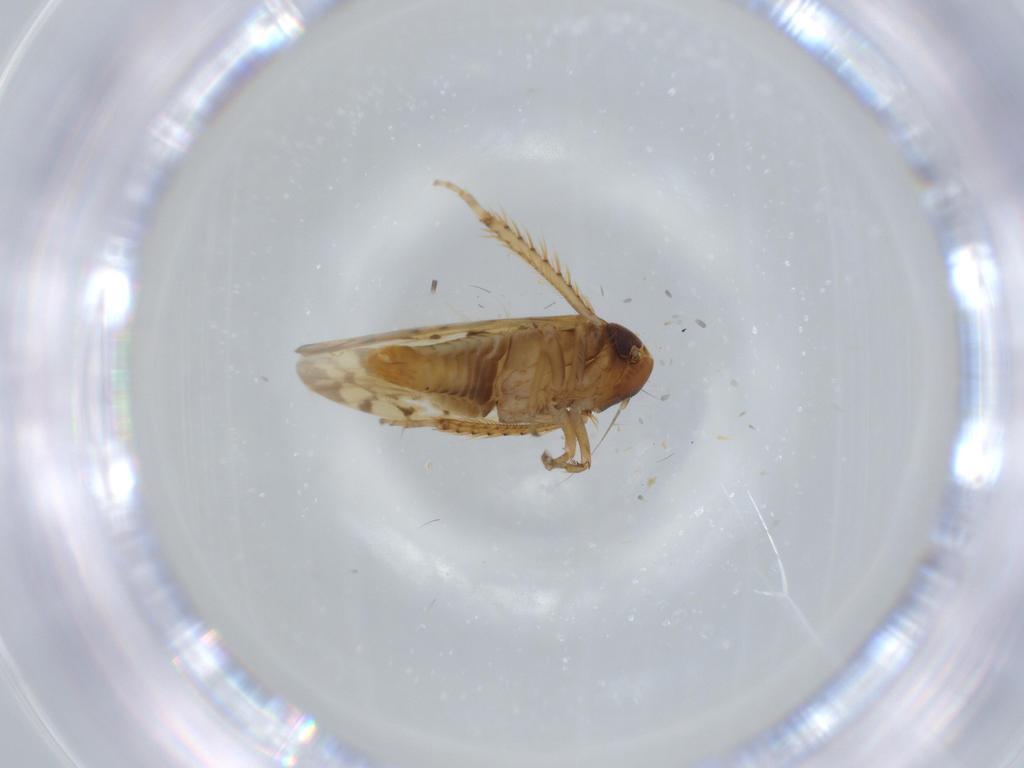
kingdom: Animalia
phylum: Arthropoda
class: Insecta
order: Hemiptera
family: Cicadellidae
